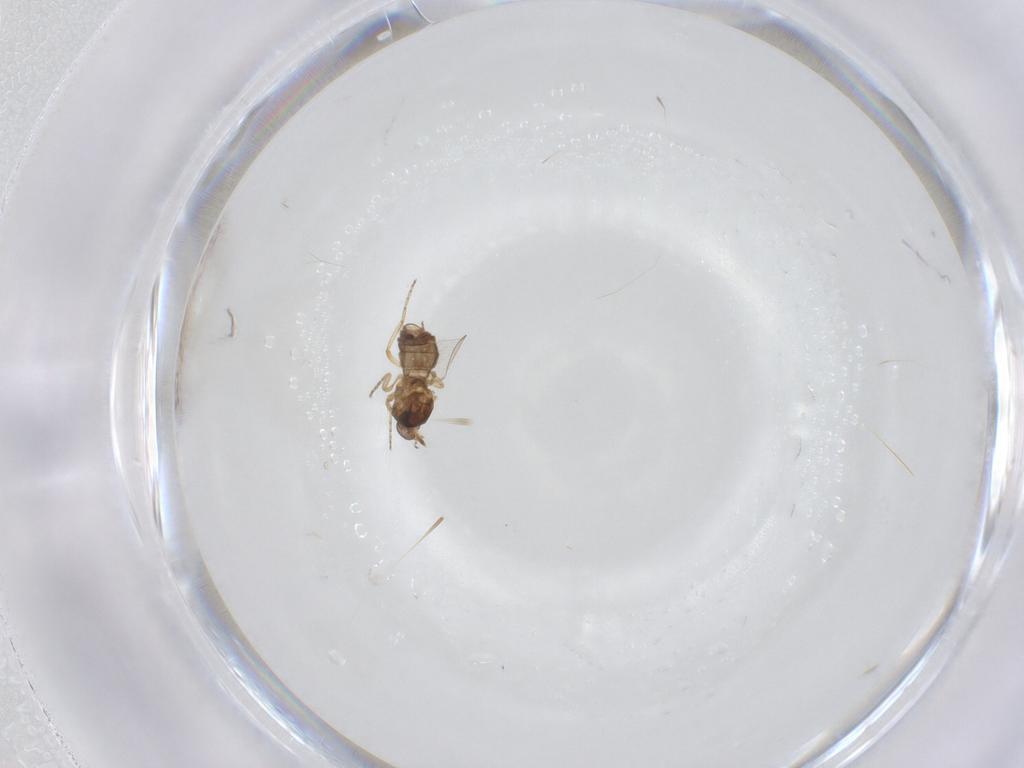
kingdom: Animalia
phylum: Arthropoda
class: Insecta
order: Diptera
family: Ceratopogonidae
